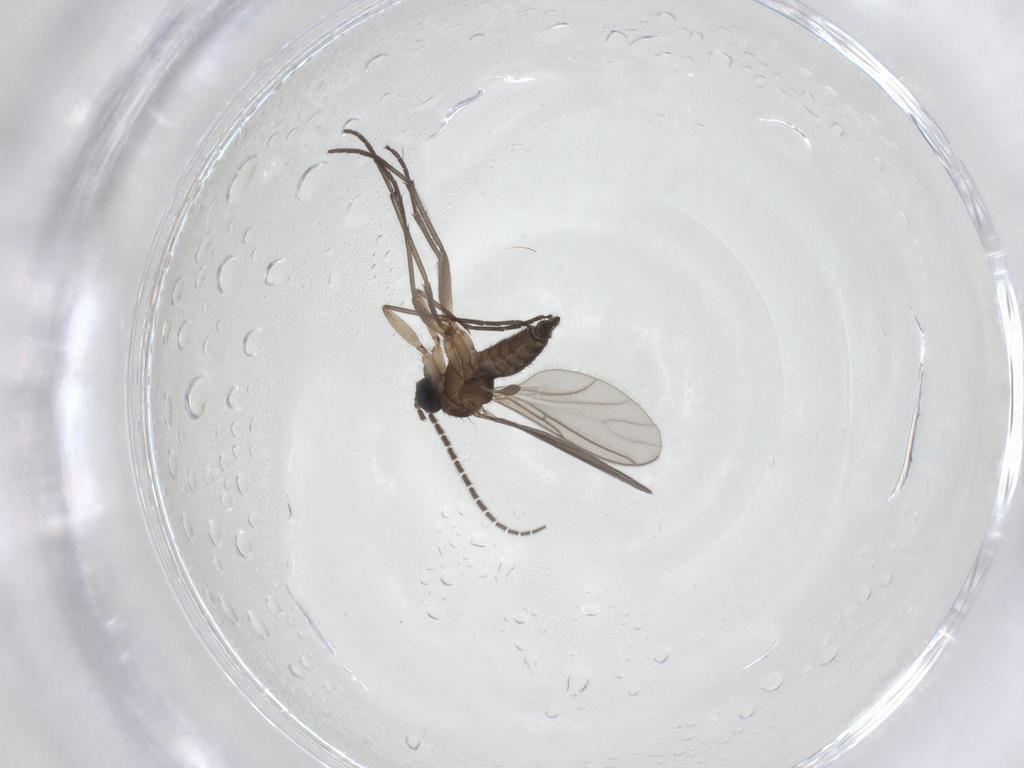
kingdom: Animalia
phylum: Arthropoda
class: Insecta
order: Diptera
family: Sciaridae
